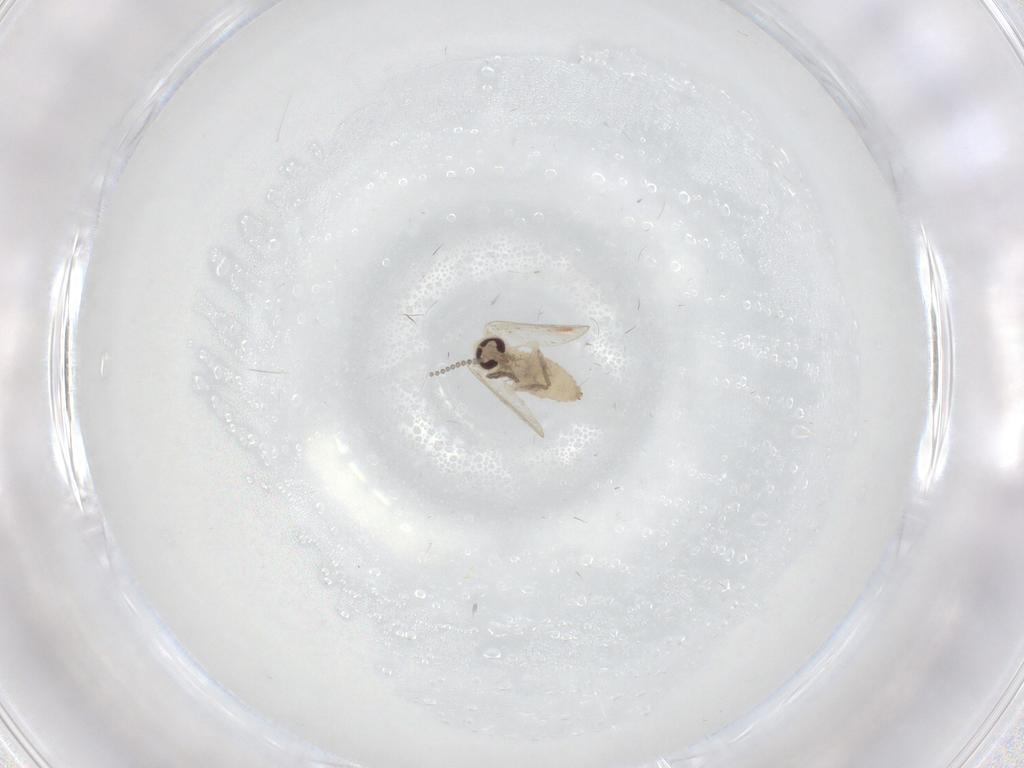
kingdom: Animalia
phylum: Arthropoda
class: Insecta
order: Diptera
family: Psychodidae
